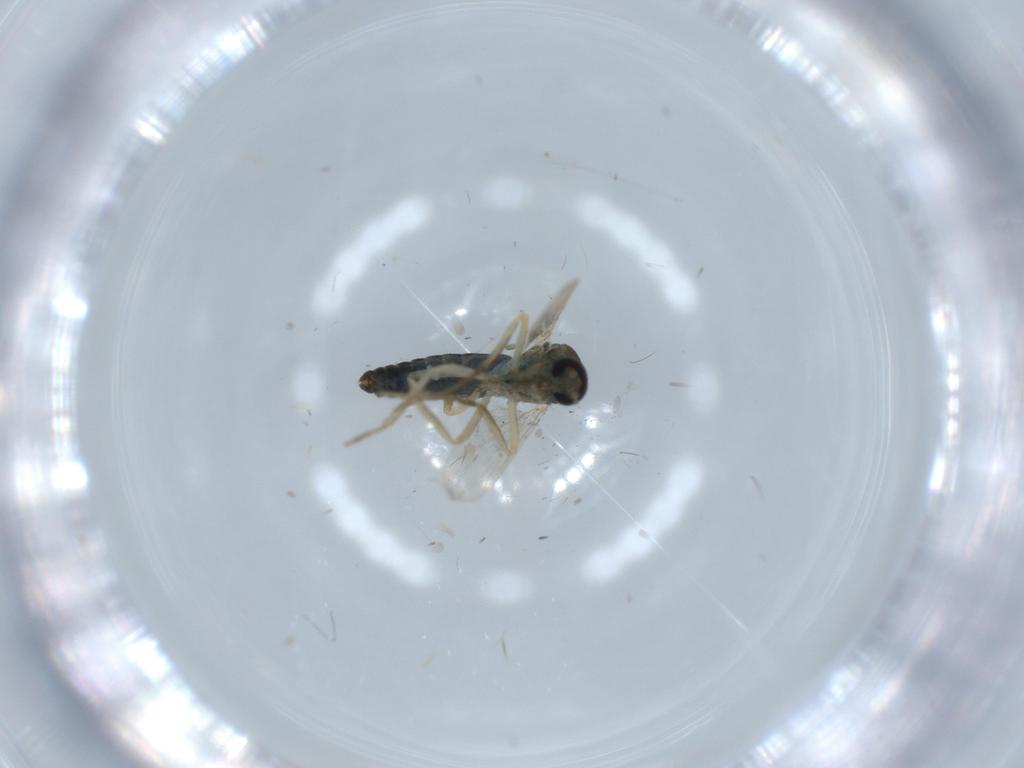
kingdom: Animalia
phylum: Arthropoda
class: Insecta
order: Diptera
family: Ceratopogonidae
